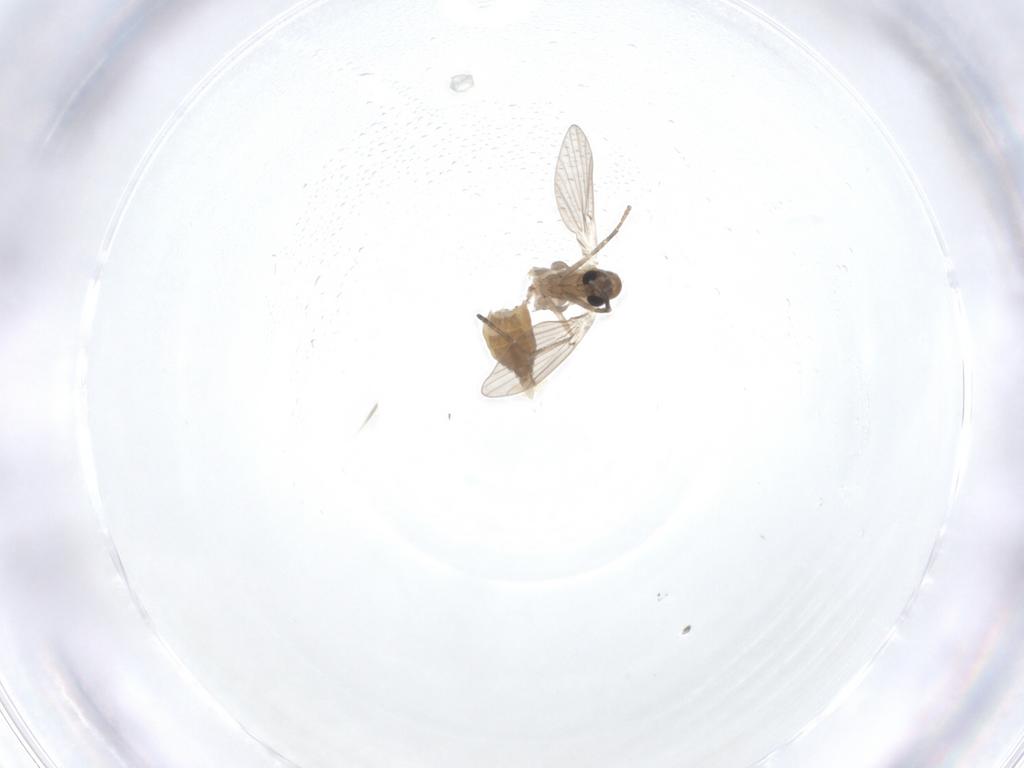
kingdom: Animalia
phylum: Arthropoda
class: Insecta
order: Diptera
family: Psychodidae
